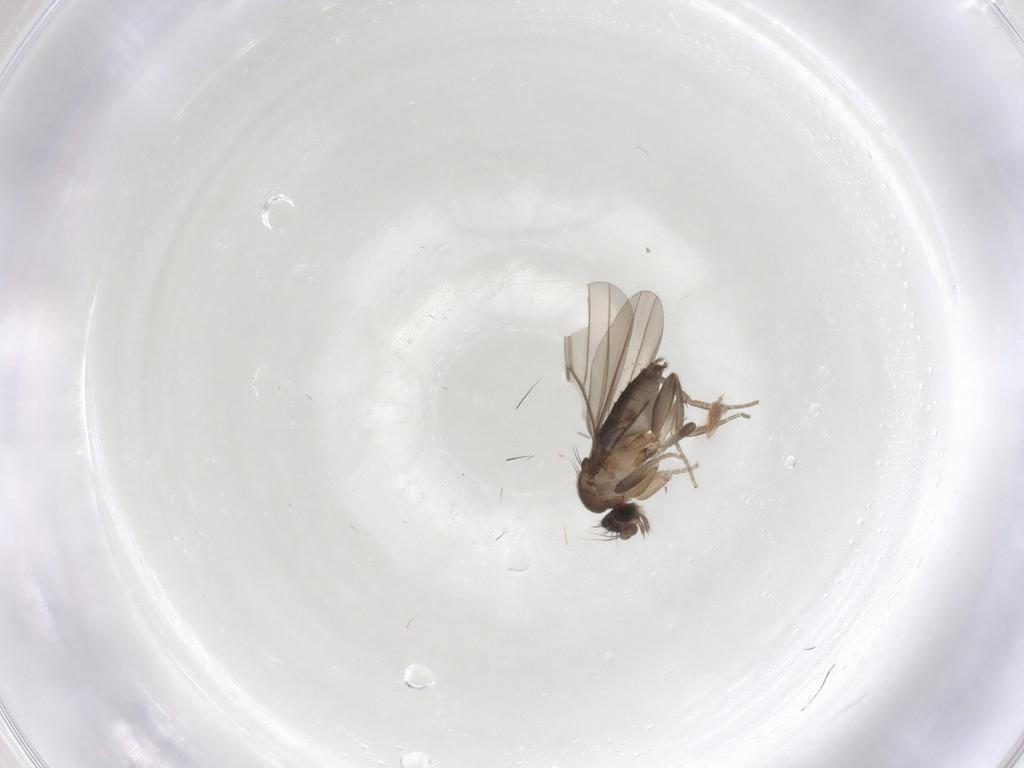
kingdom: Animalia
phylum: Arthropoda
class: Insecta
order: Diptera
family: Phoridae
